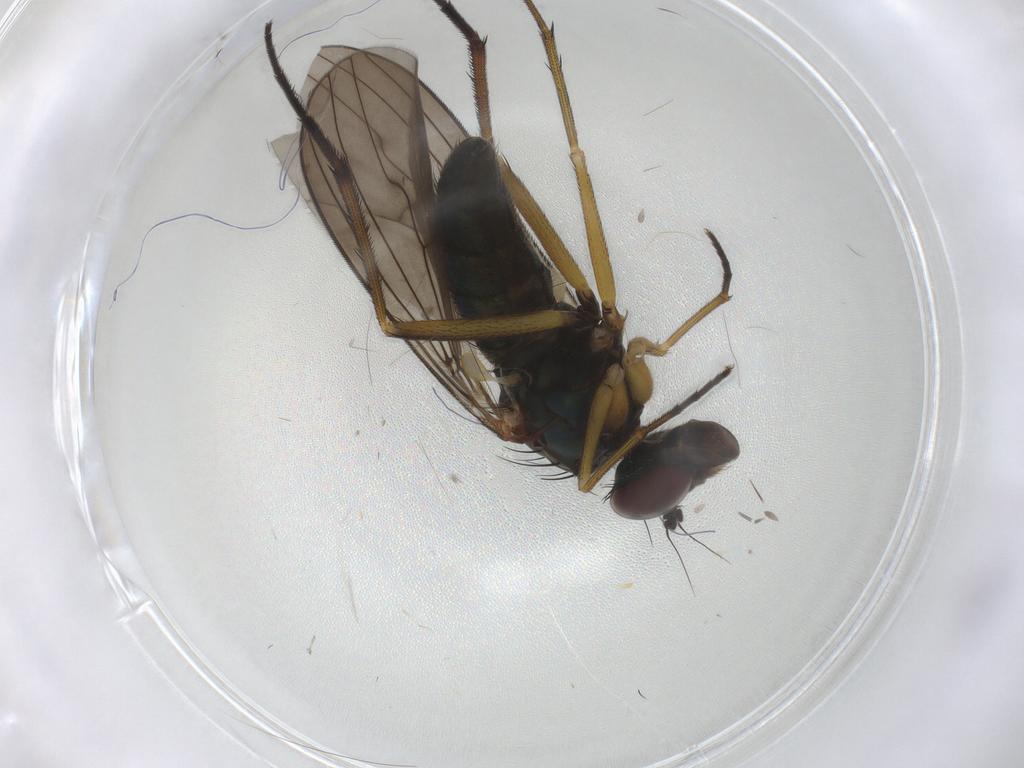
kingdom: Animalia
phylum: Arthropoda
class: Insecta
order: Diptera
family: Dolichopodidae
